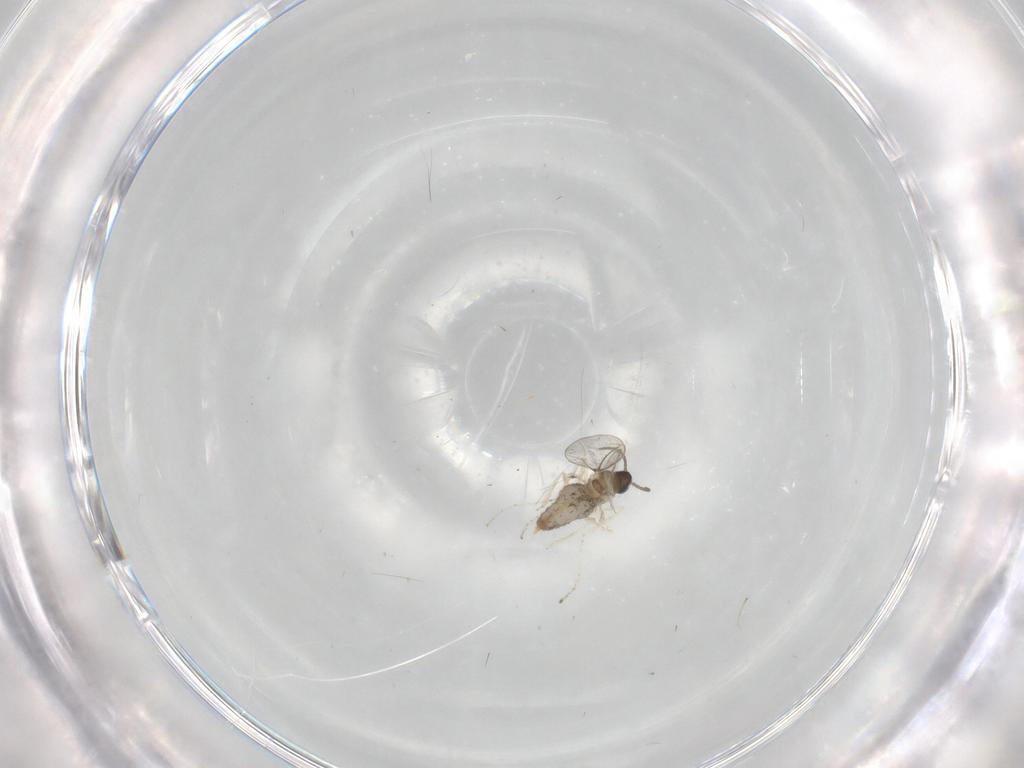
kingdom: Animalia
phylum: Arthropoda
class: Insecta
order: Diptera
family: Cecidomyiidae
